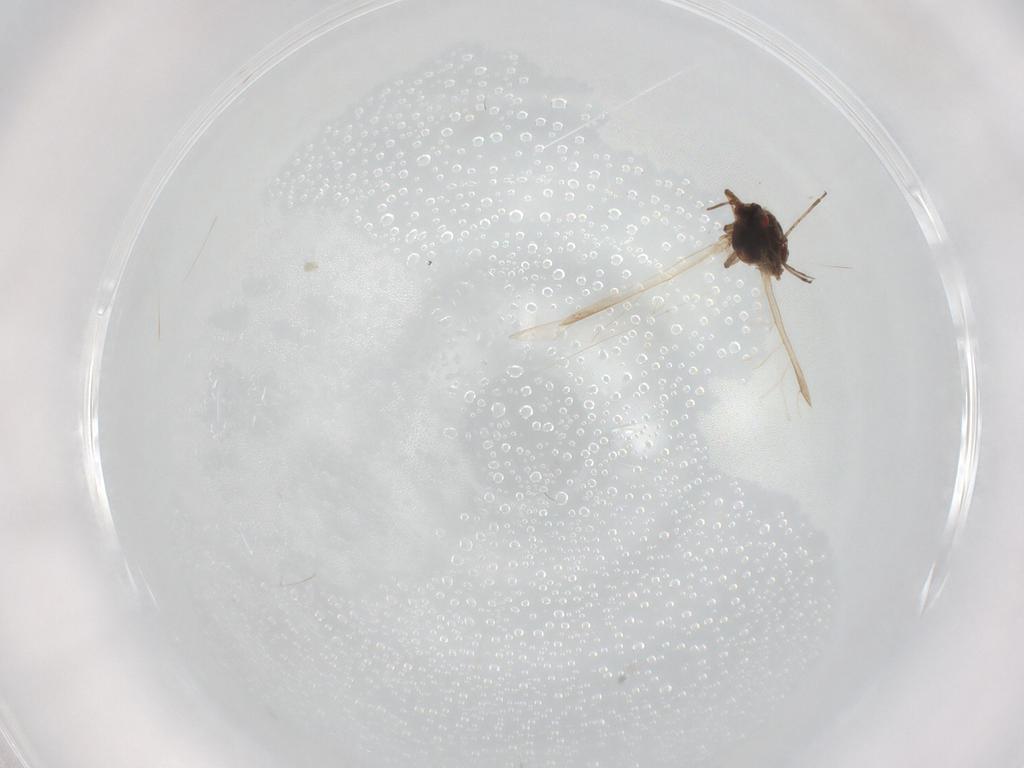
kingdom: Animalia
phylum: Arthropoda
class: Insecta
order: Hemiptera
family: Aphididae
